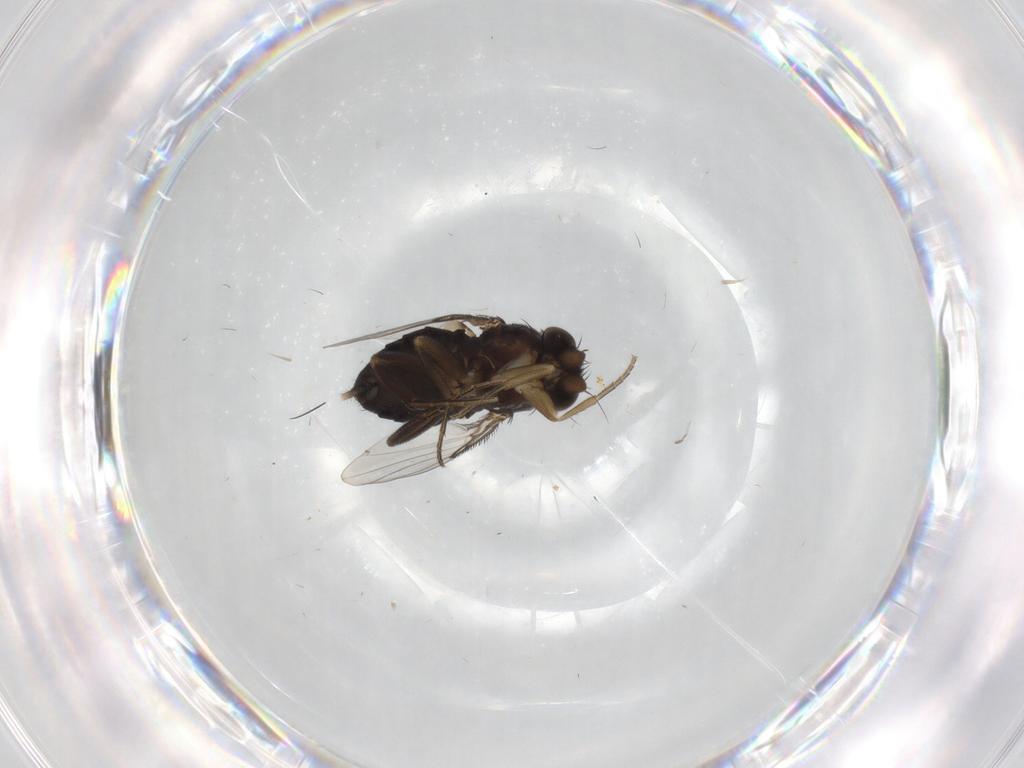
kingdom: Animalia
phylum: Arthropoda
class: Insecta
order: Diptera
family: Phoridae
